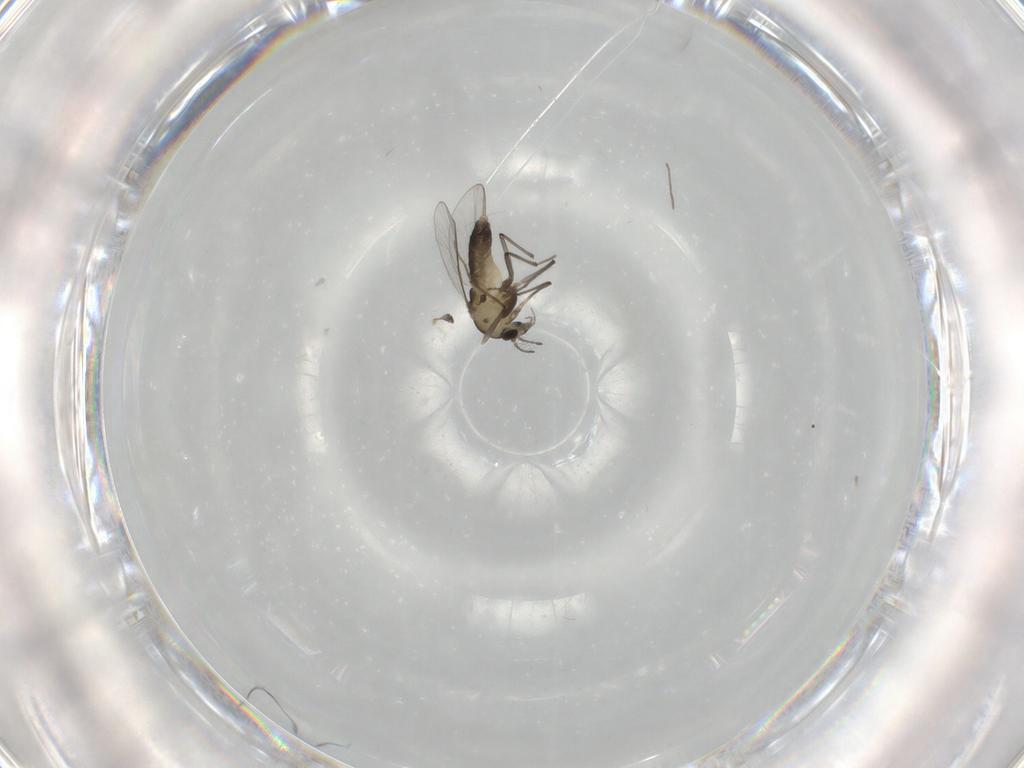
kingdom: Animalia
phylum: Arthropoda
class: Insecta
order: Diptera
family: Chironomidae
